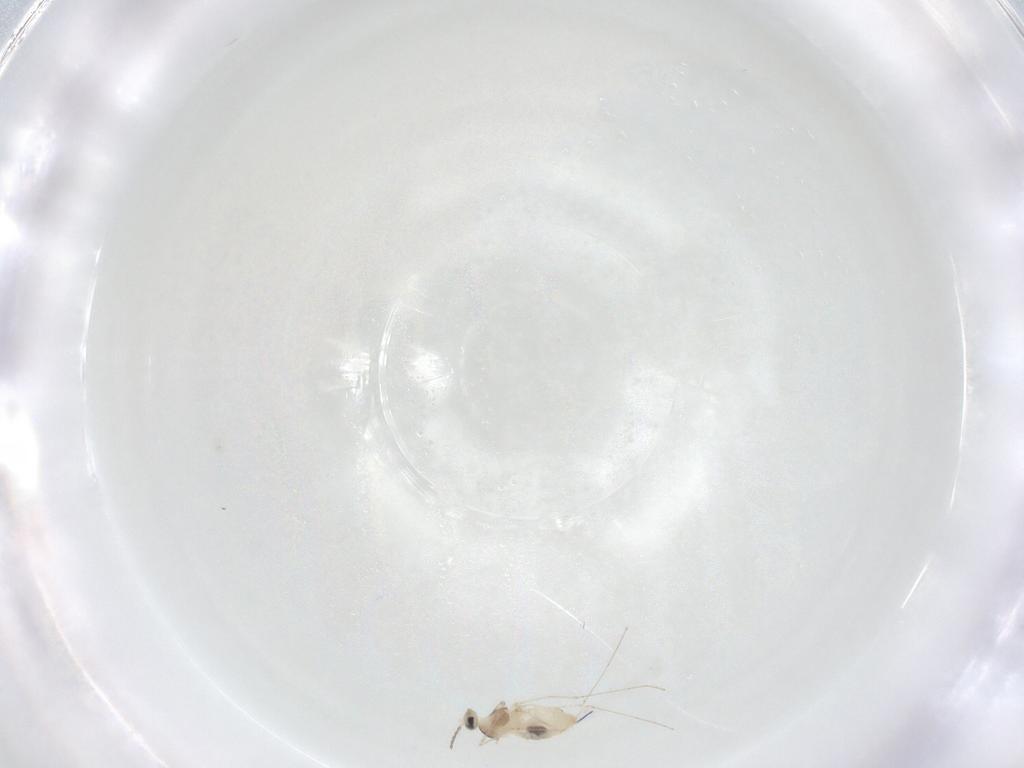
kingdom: Animalia
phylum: Arthropoda
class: Insecta
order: Diptera
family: Cecidomyiidae
